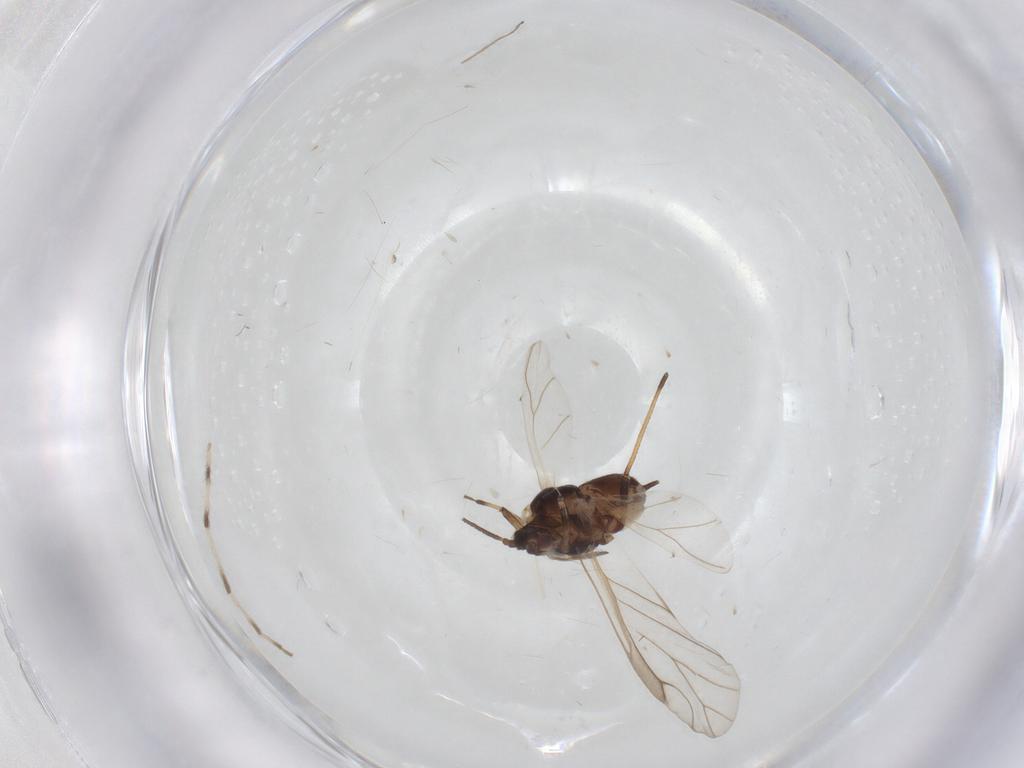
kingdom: Animalia
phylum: Arthropoda
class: Insecta
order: Hemiptera
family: Aphididae
